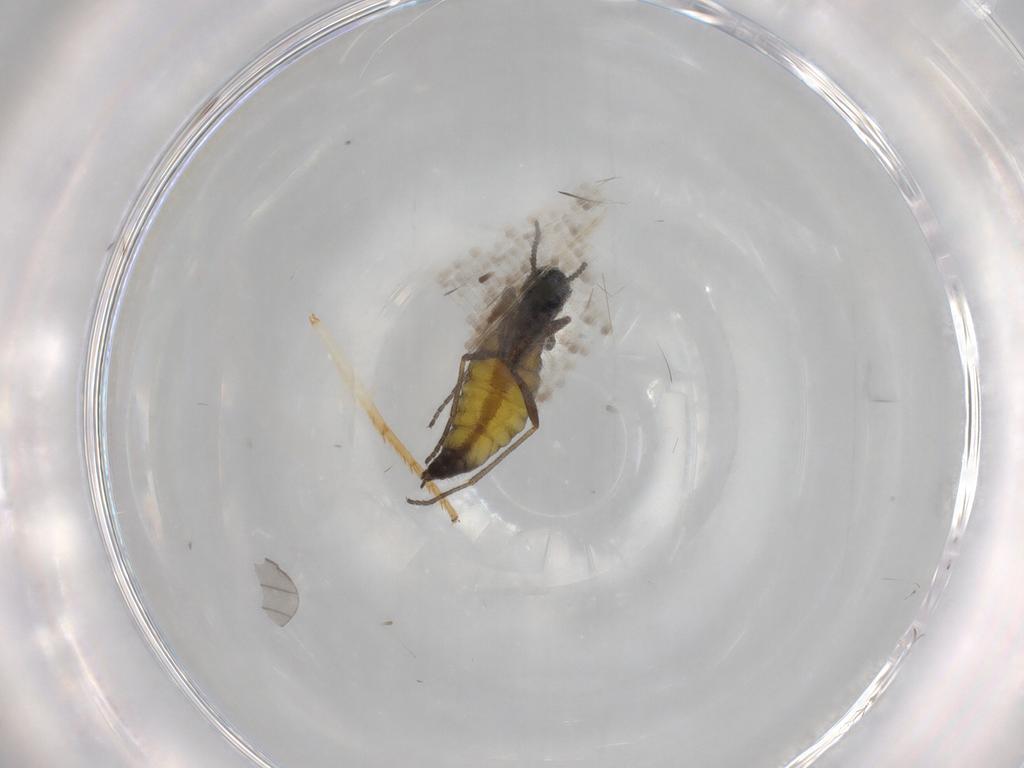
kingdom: Animalia
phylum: Arthropoda
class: Insecta
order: Diptera
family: Sciaridae
